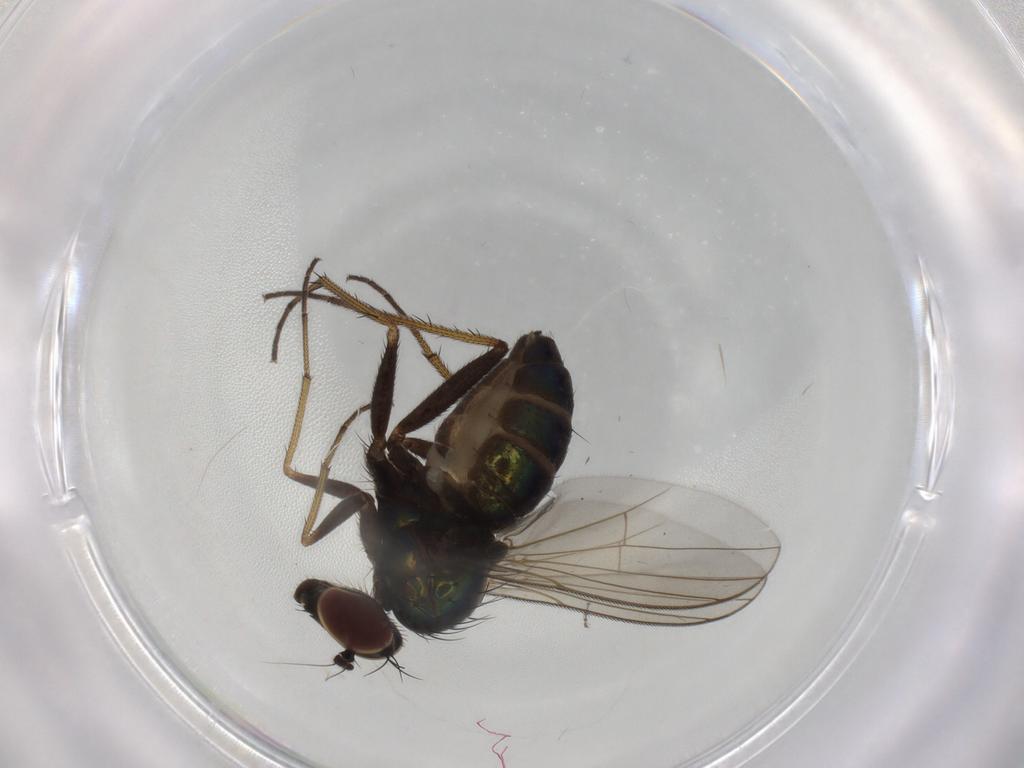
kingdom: Animalia
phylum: Arthropoda
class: Insecta
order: Diptera
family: Dolichopodidae
